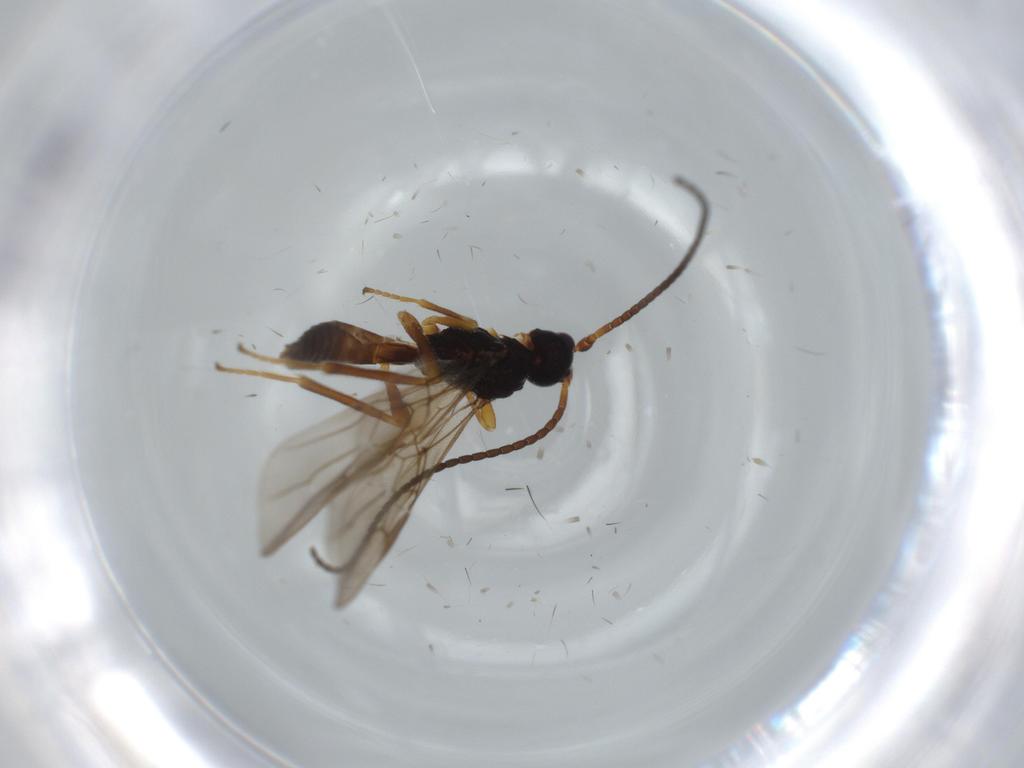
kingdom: Animalia
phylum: Arthropoda
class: Insecta
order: Hymenoptera
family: Braconidae
